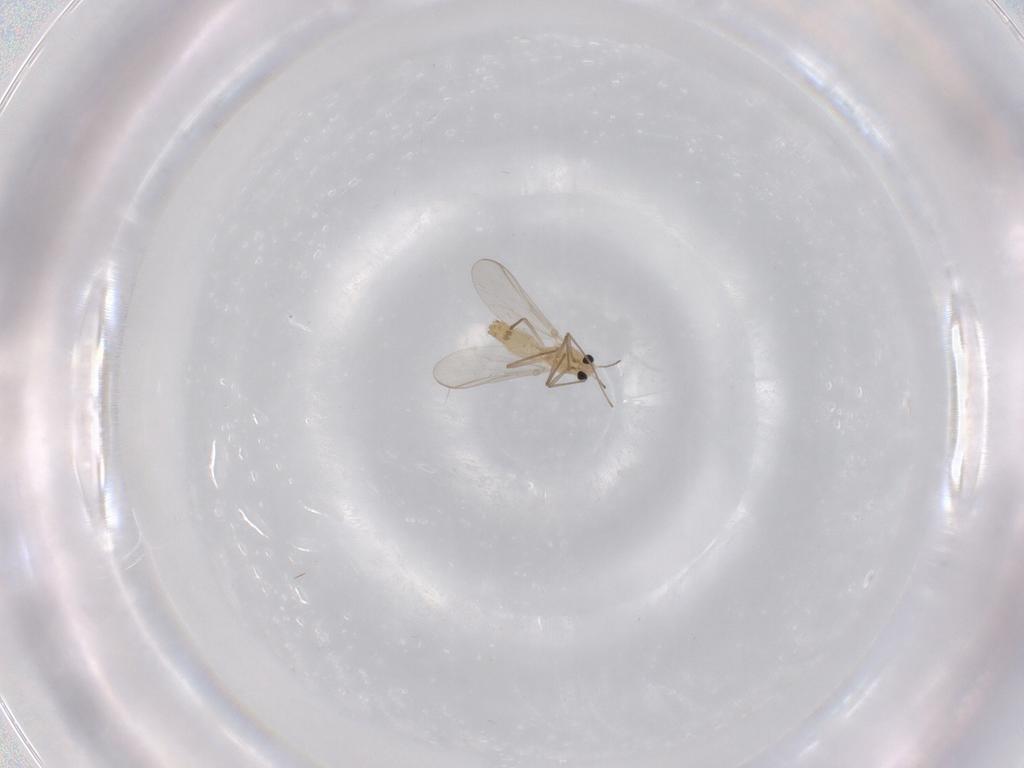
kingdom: Animalia
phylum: Arthropoda
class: Insecta
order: Diptera
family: Chironomidae
